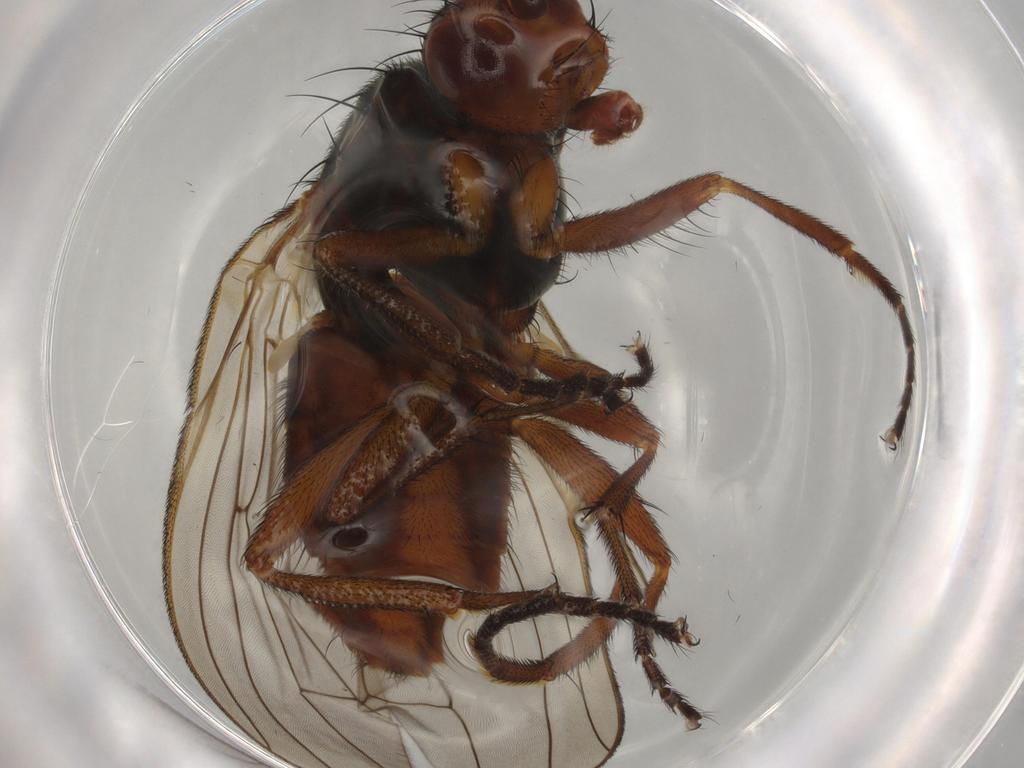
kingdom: Animalia
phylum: Arthropoda
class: Insecta
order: Diptera
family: Heleomyzidae
